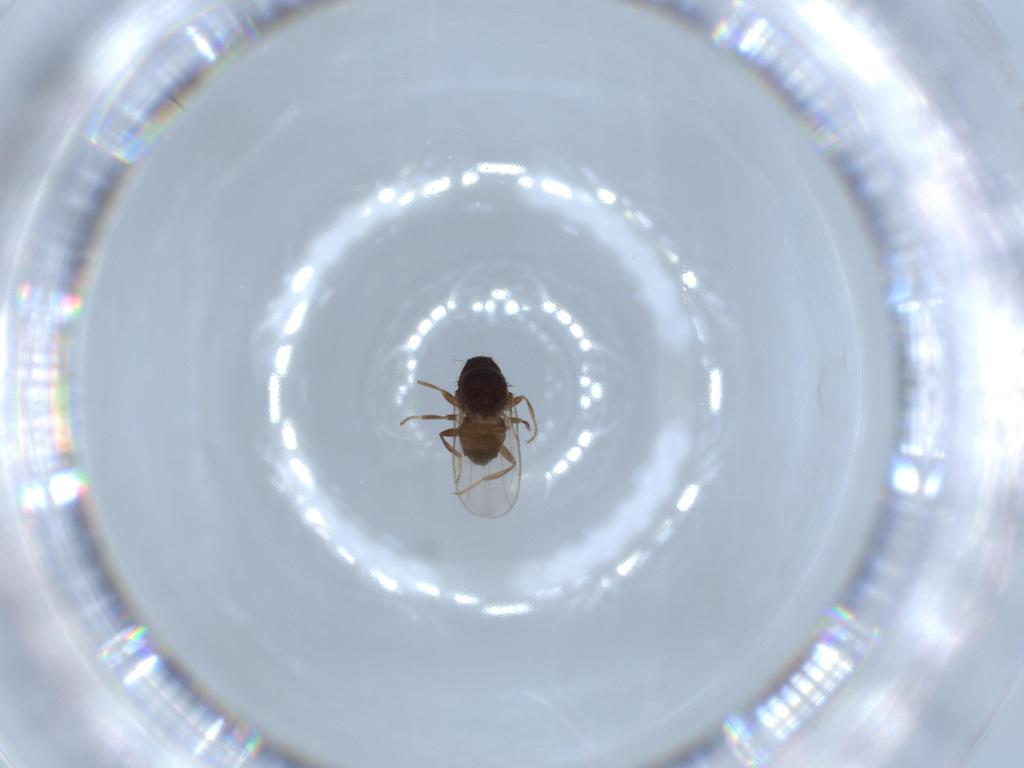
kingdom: Animalia
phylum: Arthropoda
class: Insecta
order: Diptera
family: Chloropidae
